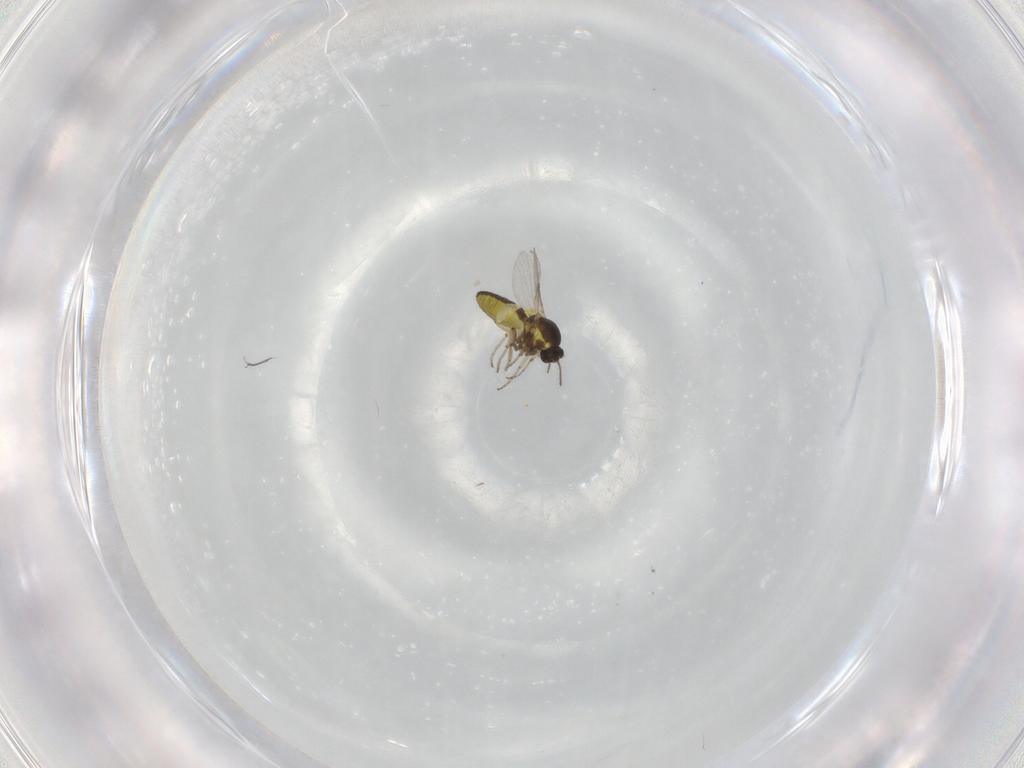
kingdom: Animalia
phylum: Arthropoda
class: Insecta
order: Diptera
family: Ceratopogonidae
